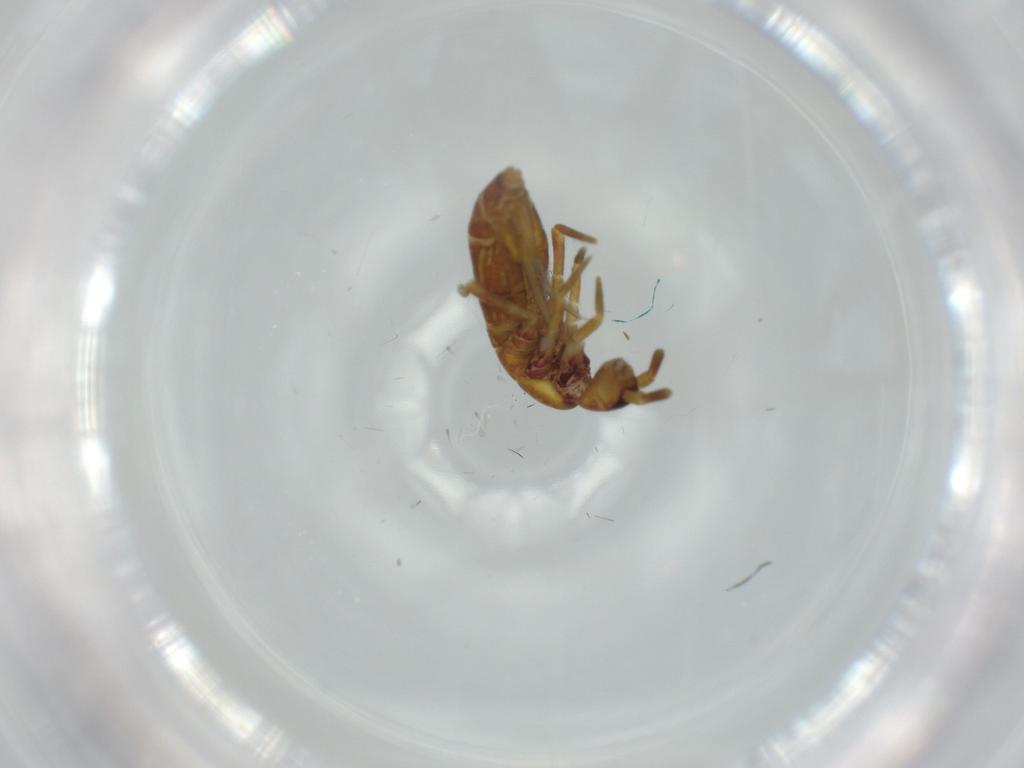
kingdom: Animalia
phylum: Arthropoda
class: Collembola
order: Entomobryomorpha
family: Tomoceridae
